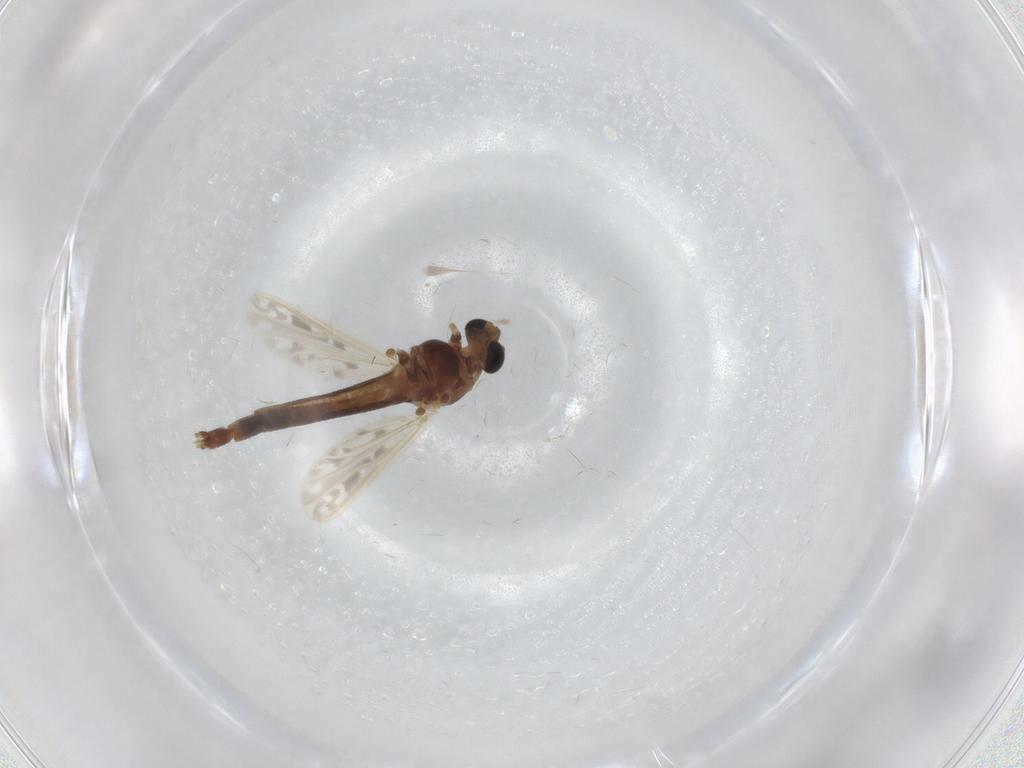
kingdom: Animalia
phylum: Arthropoda
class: Insecta
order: Diptera
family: Chironomidae
